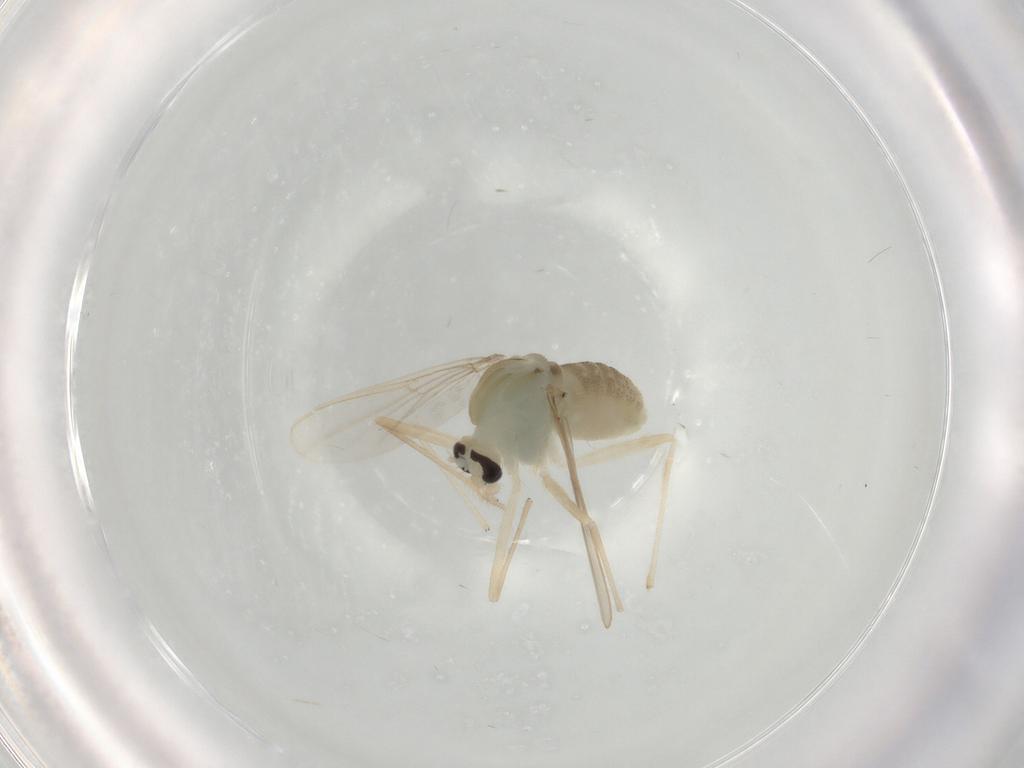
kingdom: Animalia
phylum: Arthropoda
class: Insecta
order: Diptera
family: Chironomidae
